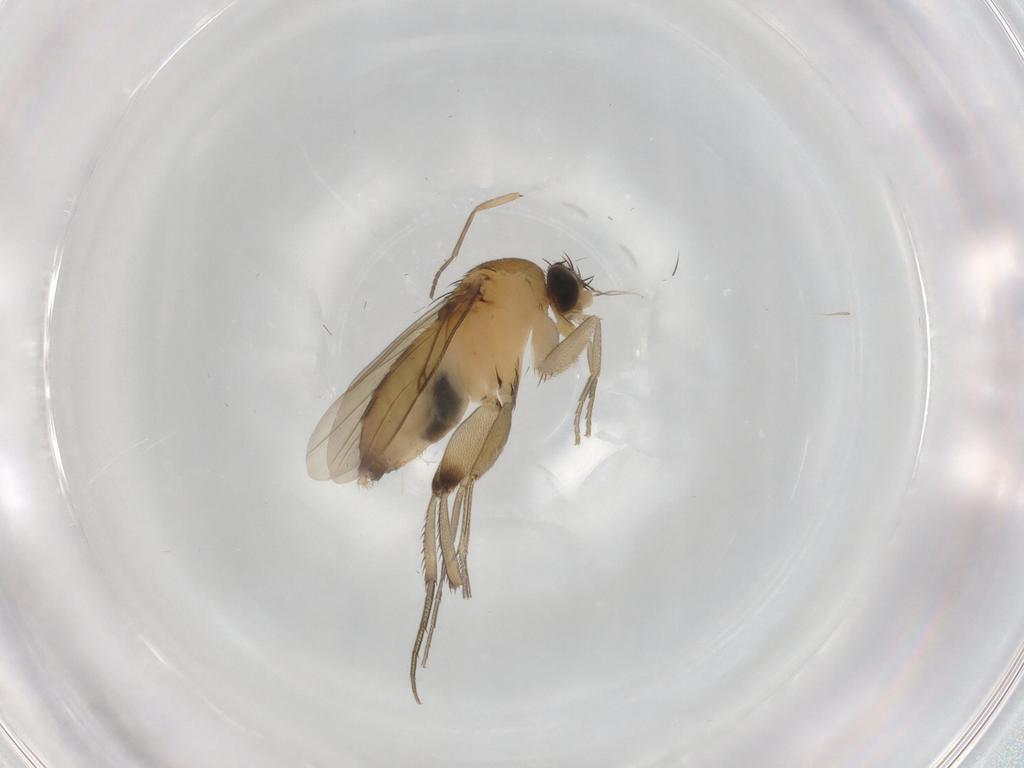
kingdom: Animalia
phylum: Arthropoda
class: Insecta
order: Diptera
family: Phoridae
